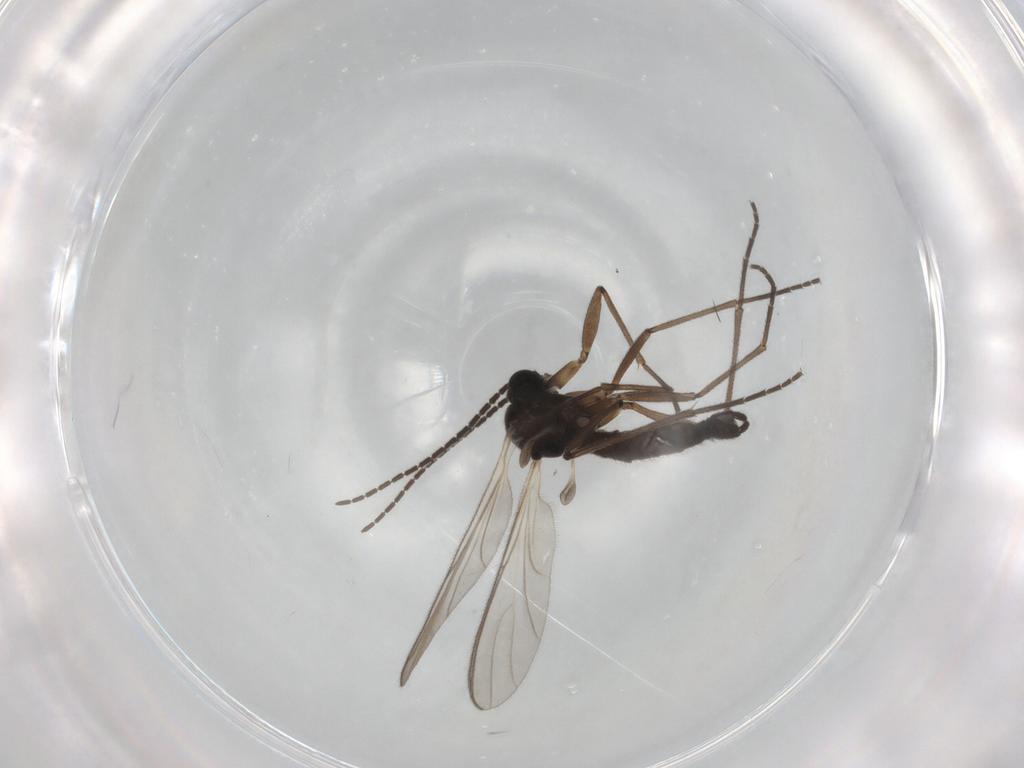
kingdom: Animalia
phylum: Arthropoda
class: Insecta
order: Diptera
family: Sciaridae
